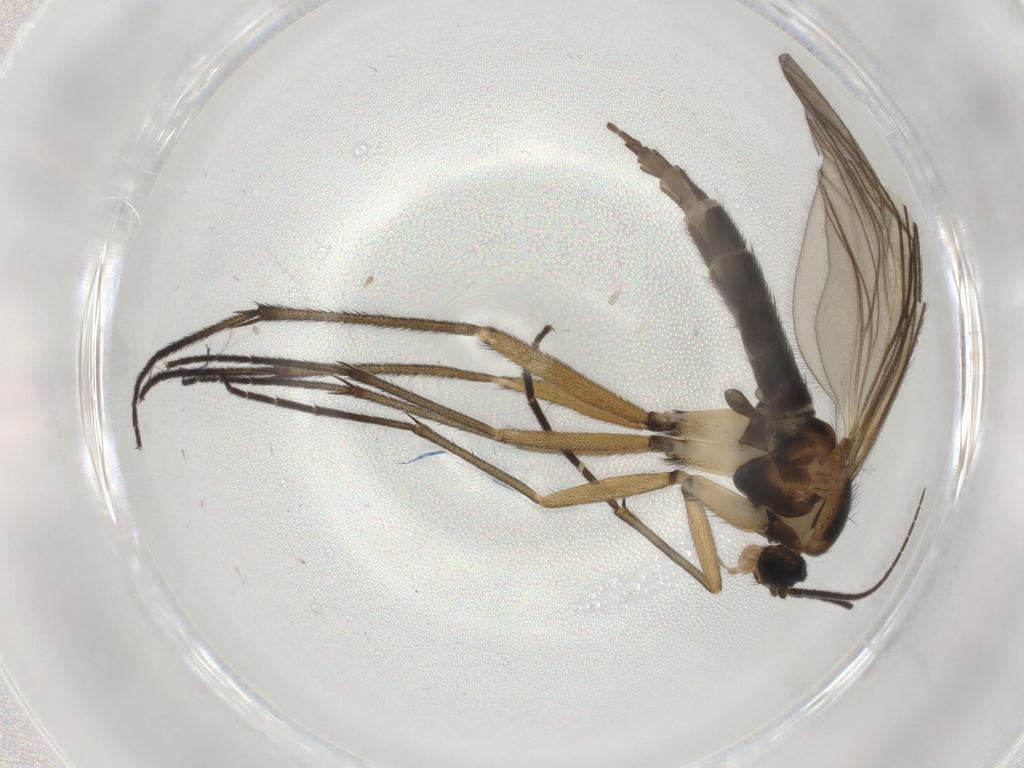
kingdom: Animalia
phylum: Arthropoda
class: Insecta
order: Diptera
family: Sciaridae
